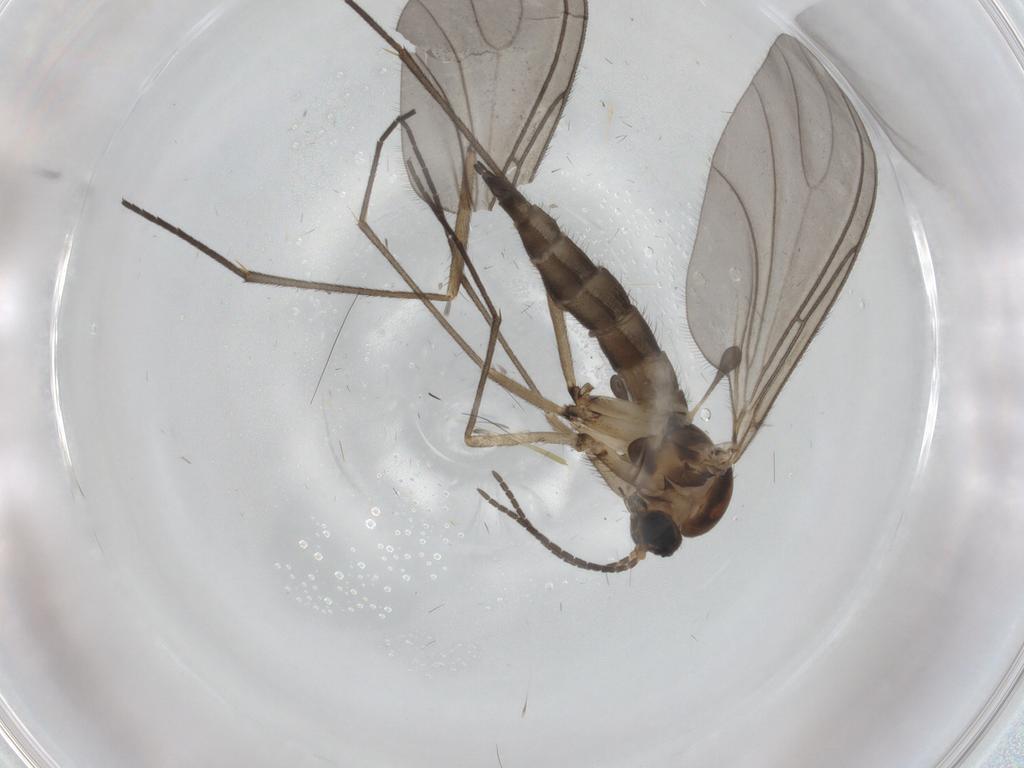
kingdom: Animalia
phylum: Arthropoda
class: Insecta
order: Diptera
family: Sciaridae
